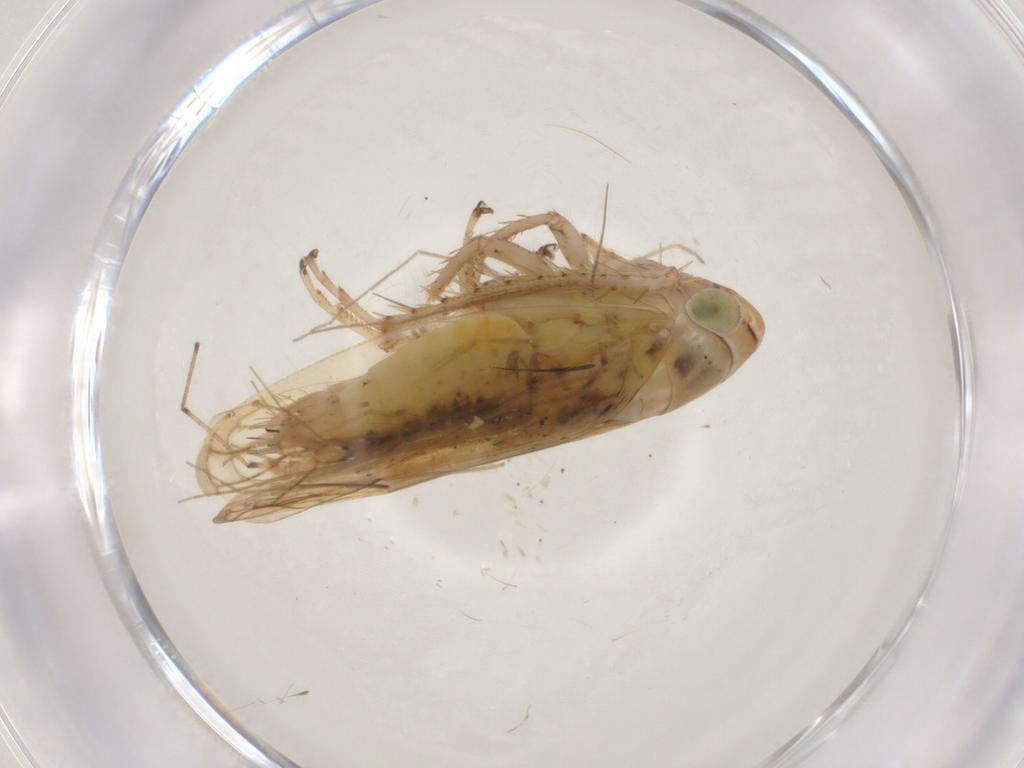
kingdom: Animalia
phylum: Arthropoda
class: Insecta
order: Hemiptera
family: Cicadellidae
